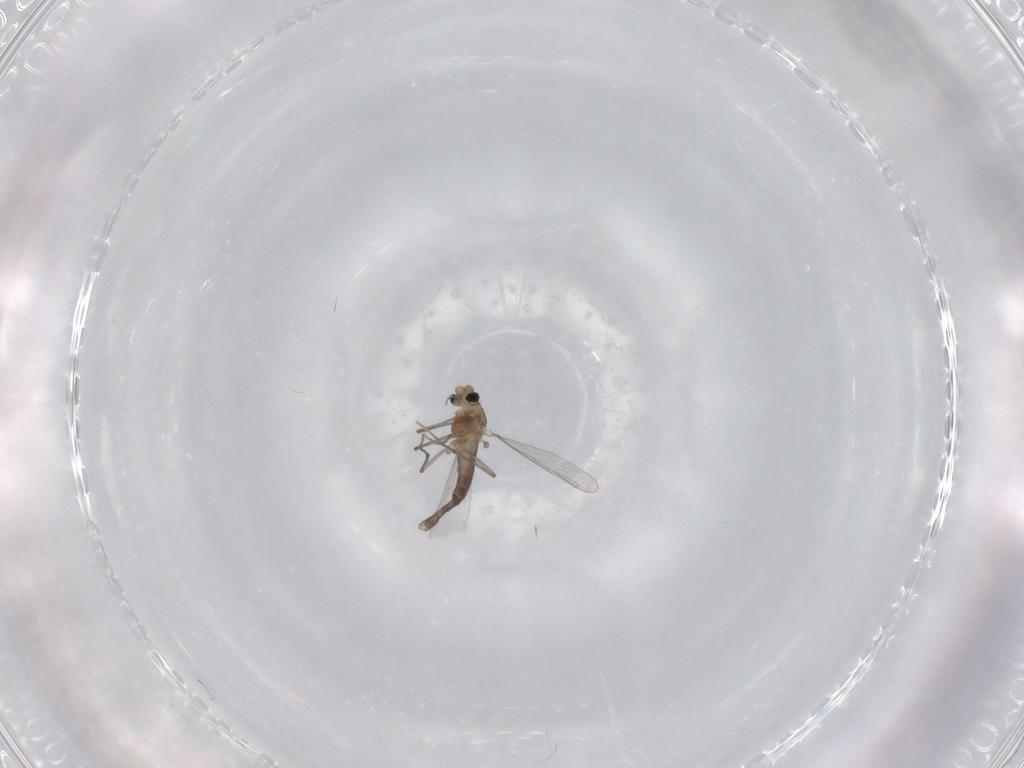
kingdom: Animalia
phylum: Arthropoda
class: Insecta
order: Diptera
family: Chironomidae
